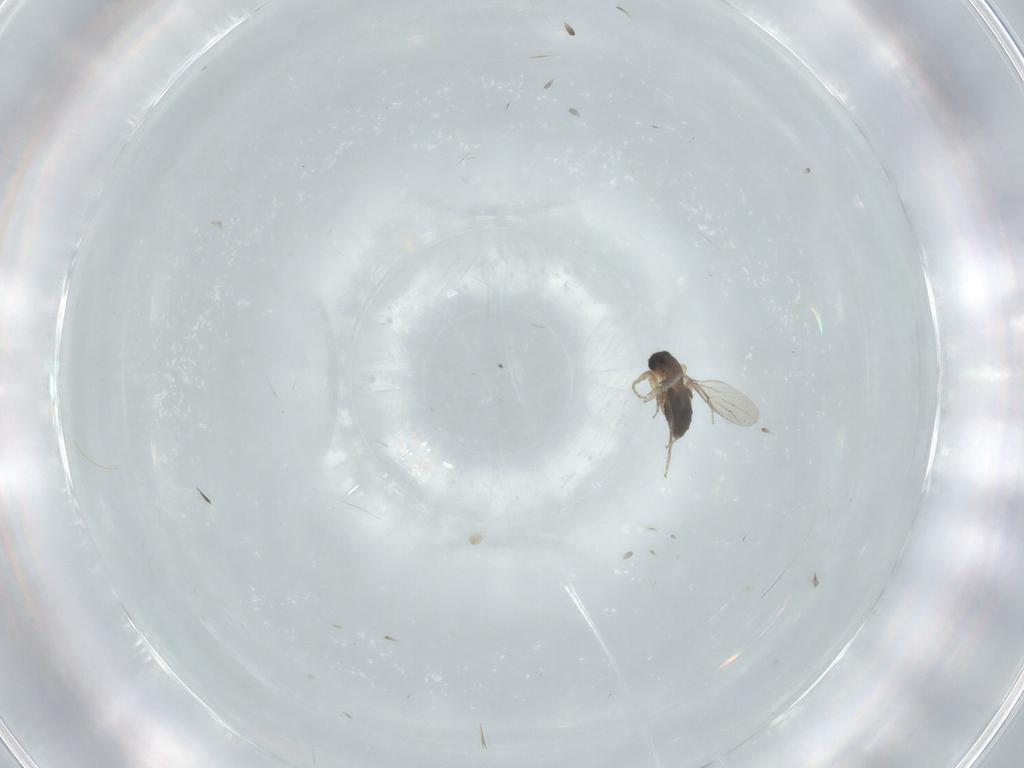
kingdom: Animalia
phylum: Arthropoda
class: Insecta
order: Diptera
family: Phoridae
